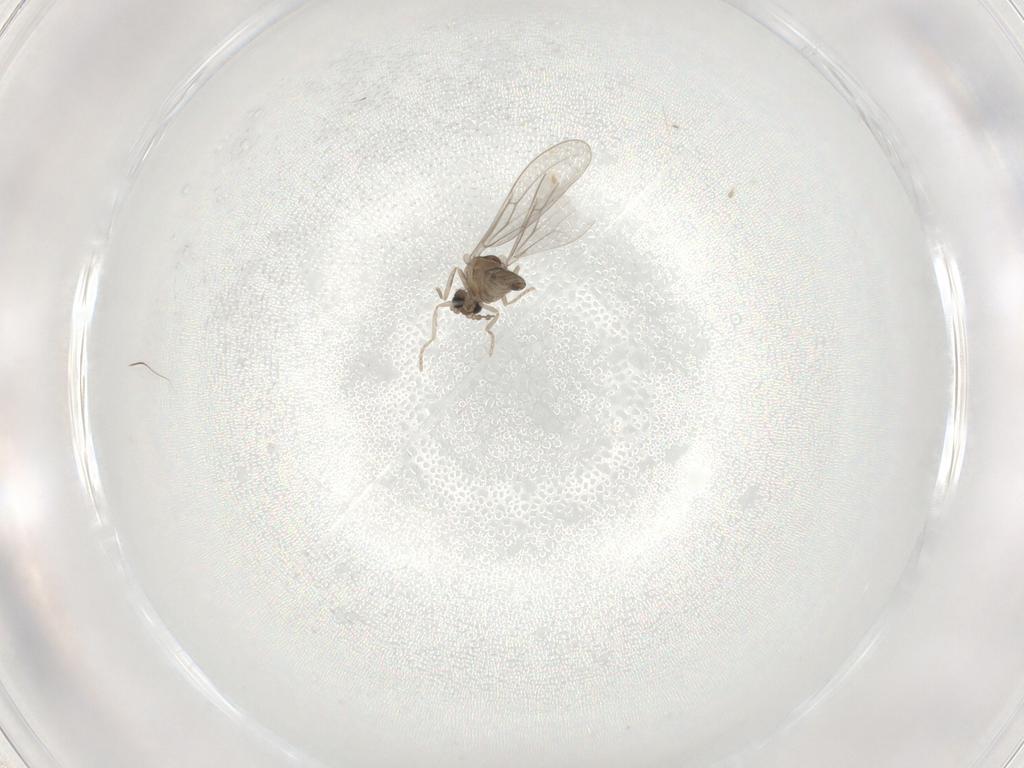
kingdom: Animalia
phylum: Arthropoda
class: Insecta
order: Diptera
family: Cecidomyiidae
